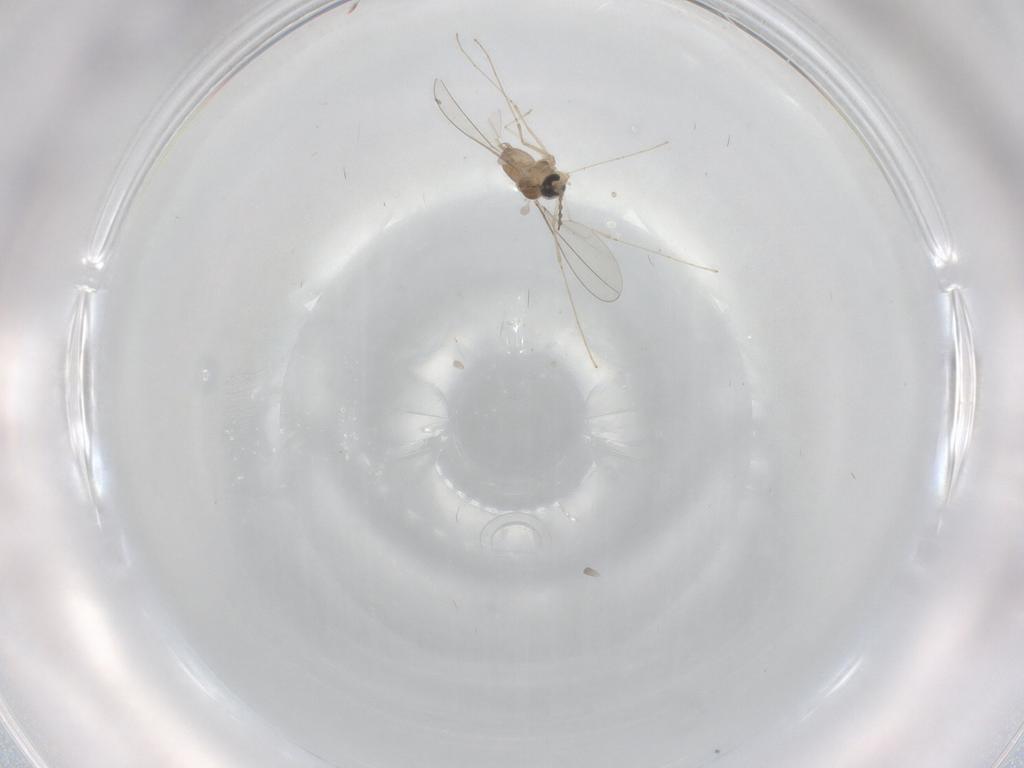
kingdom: Animalia
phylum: Arthropoda
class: Insecta
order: Diptera
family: Cecidomyiidae
